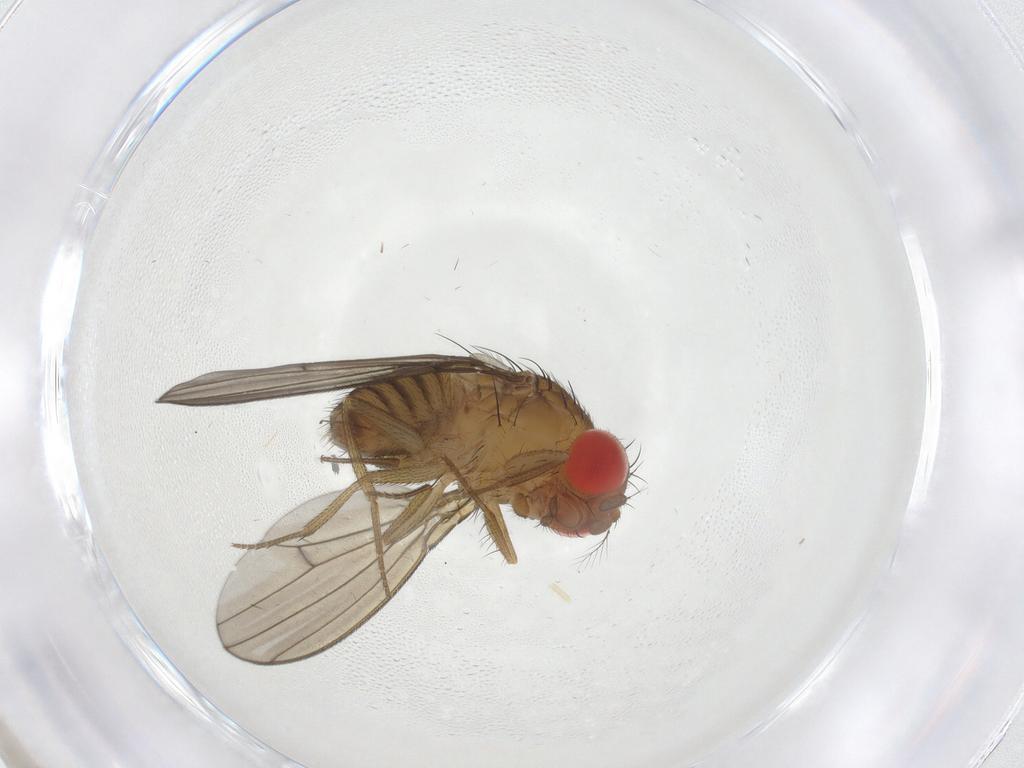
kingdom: Animalia
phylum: Arthropoda
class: Insecta
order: Diptera
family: Drosophilidae
